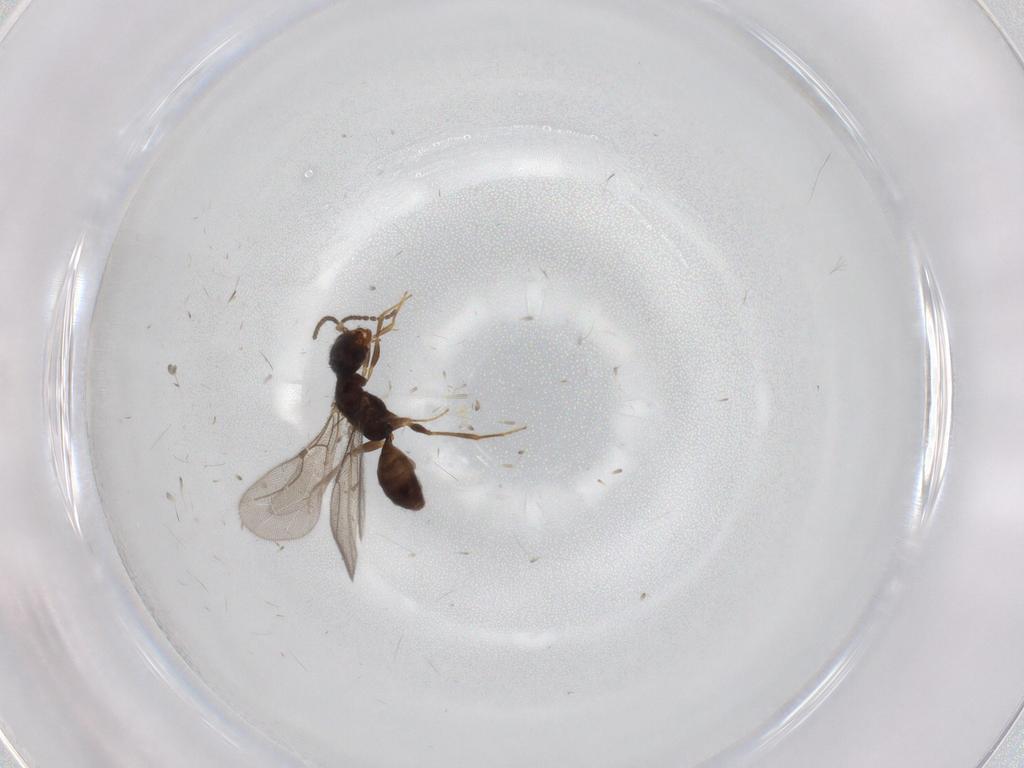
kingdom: Animalia
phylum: Arthropoda
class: Insecta
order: Hymenoptera
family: Bethylidae
